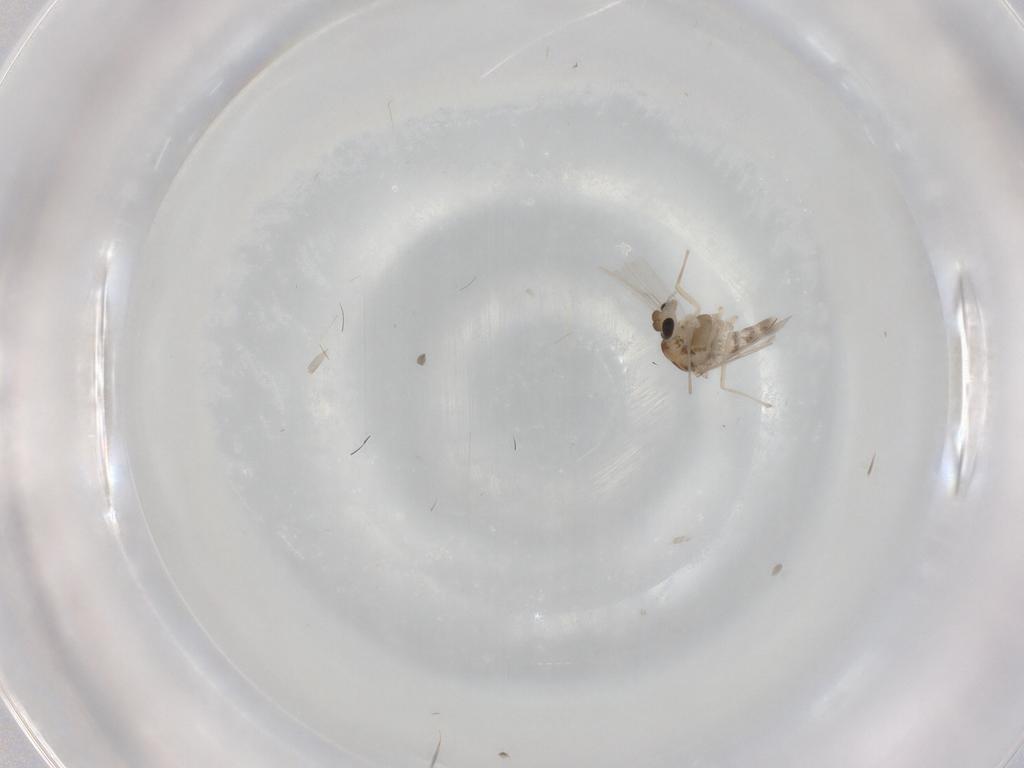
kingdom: Animalia
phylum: Arthropoda
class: Insecta
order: Diptera
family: Chironomidae
